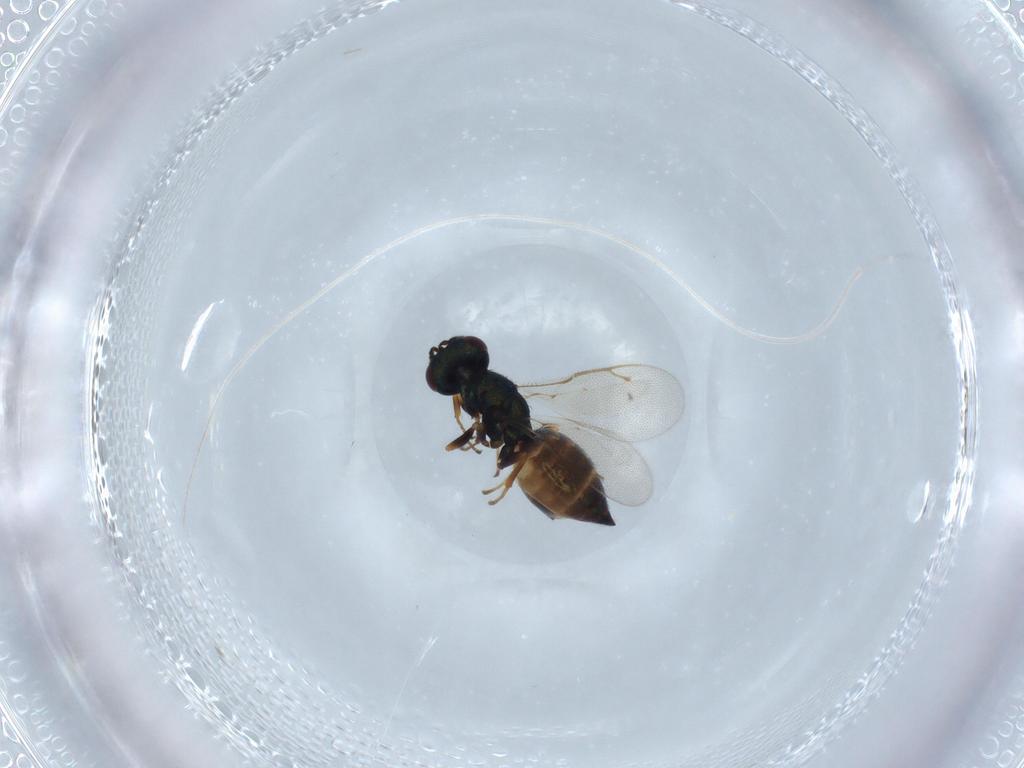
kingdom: Animalia
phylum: Arthropoda
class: Insecta
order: Hymenoptera
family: Pteromalidae
